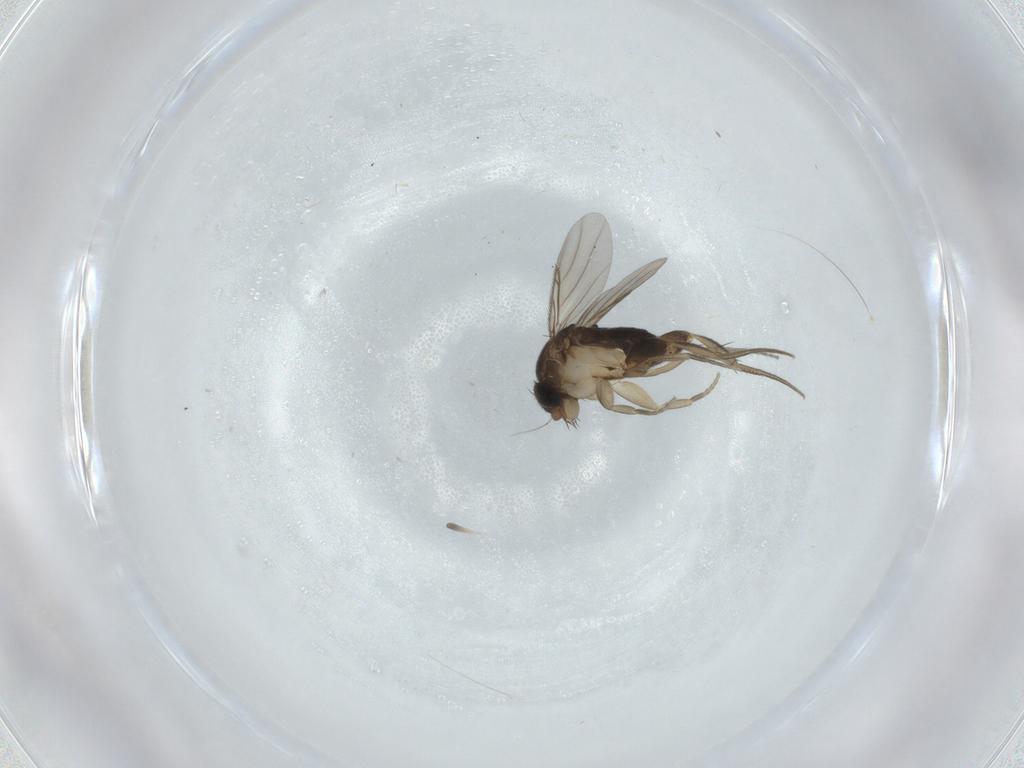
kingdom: Animalia
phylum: Arthropoda
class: Insecta
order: Diptera
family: Phoridae
